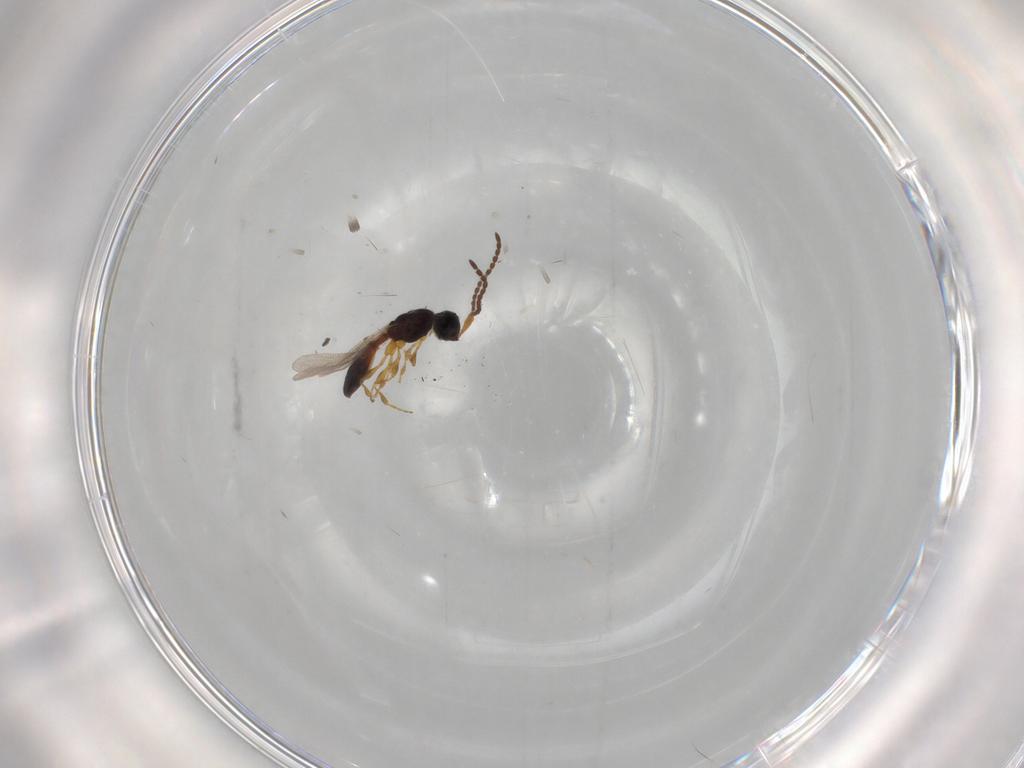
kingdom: Animalia
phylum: Arthropoda
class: Insecta
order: Hymenoptera
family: Diapriidae
